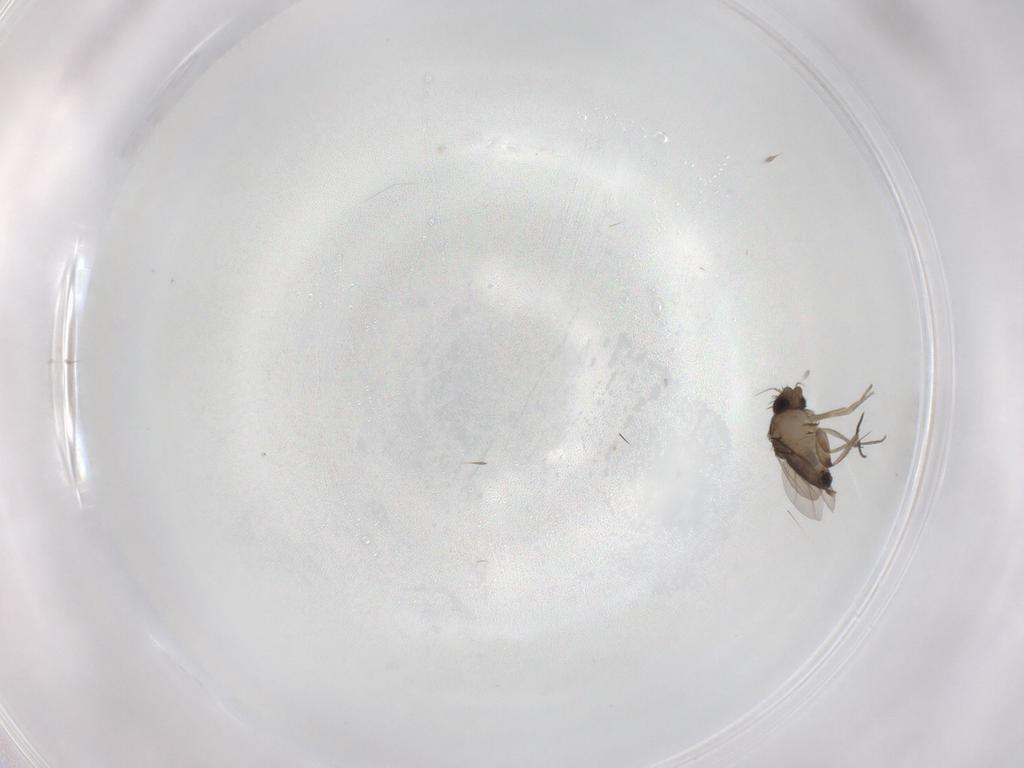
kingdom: Animalia
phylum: Arthropoda
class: Insecta
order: Diptera
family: Phoridae
